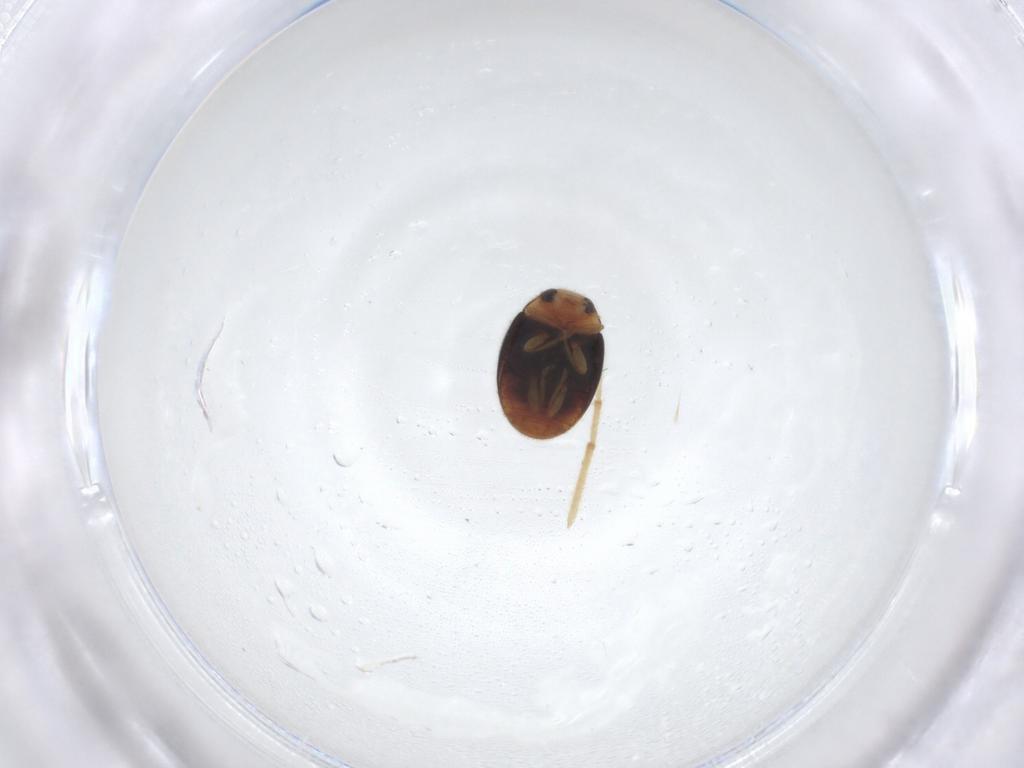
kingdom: Animalia
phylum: Arthropoda
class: Insecta
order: Coleoptera
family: Coccinellidae
